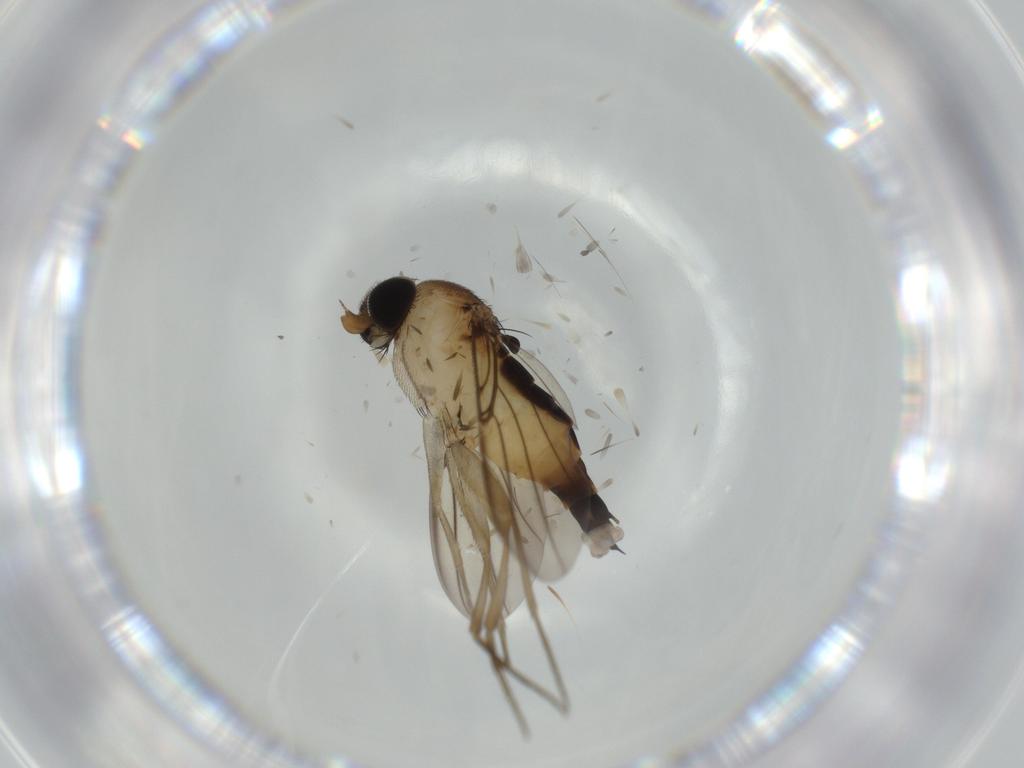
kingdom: Animalia
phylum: Arthropoda
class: Insecta
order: Diptera
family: Phoridae
